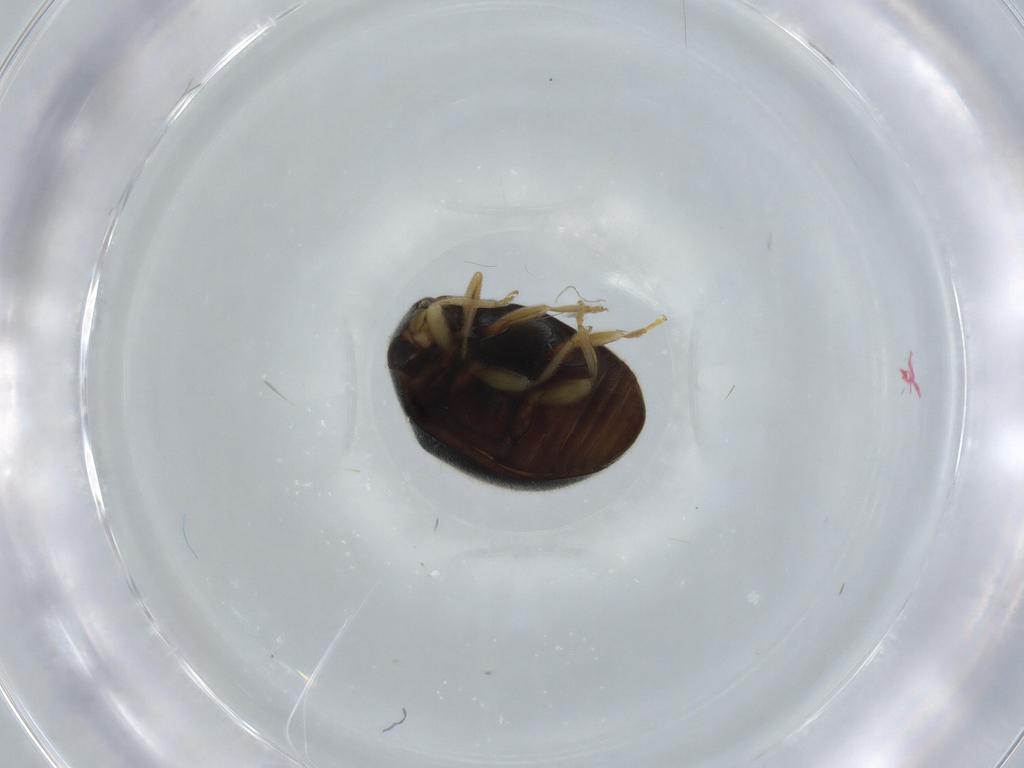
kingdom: Animalia
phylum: Arthropoda
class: Insecta
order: Coleoptera
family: Coccinellidae
